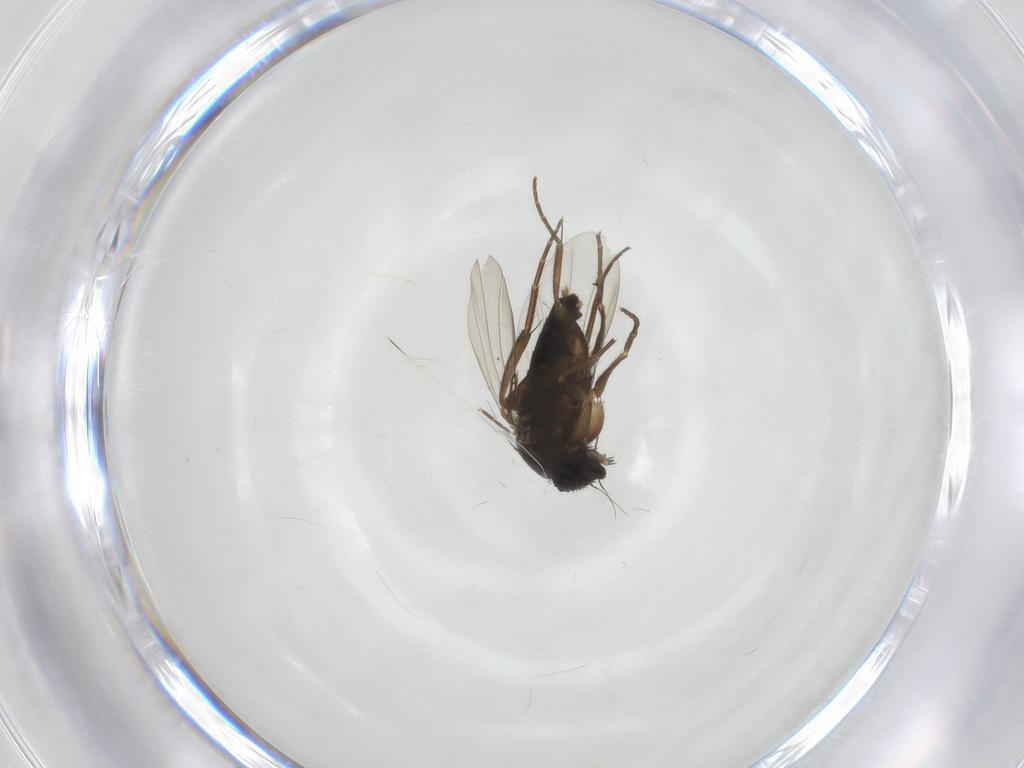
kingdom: Animalia
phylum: Arthropoda
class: Insecta
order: Diptera
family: Phoridae
